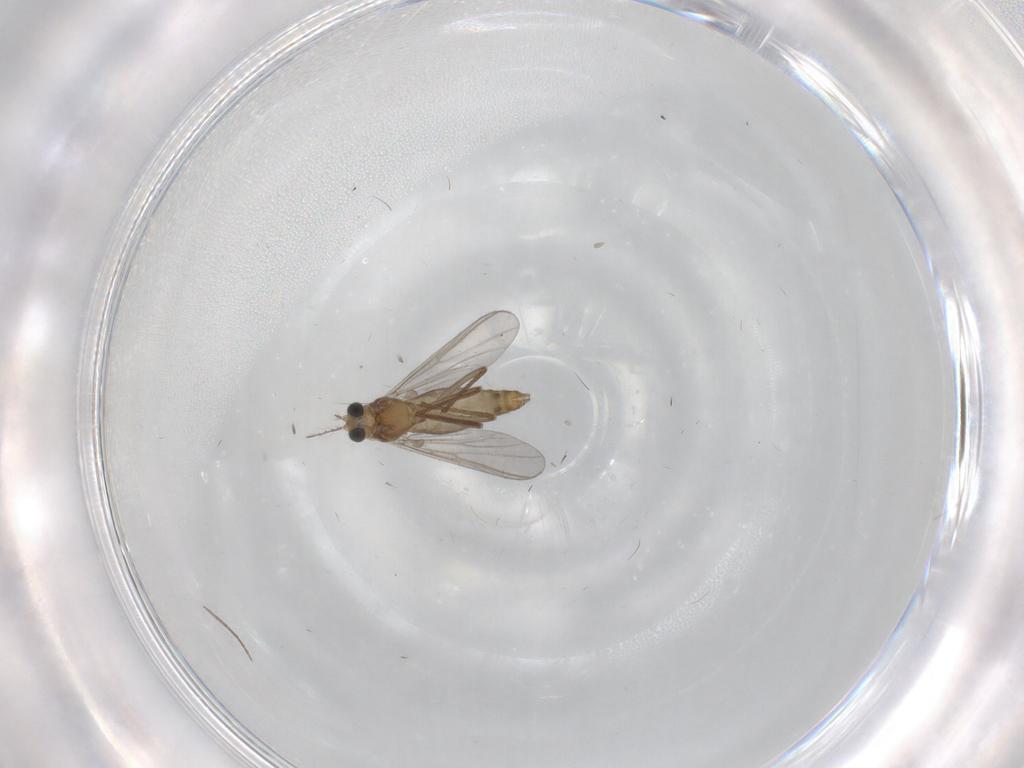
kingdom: Animalia
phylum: Arthropoda
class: Insecta
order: Diptera
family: Chironomidae
